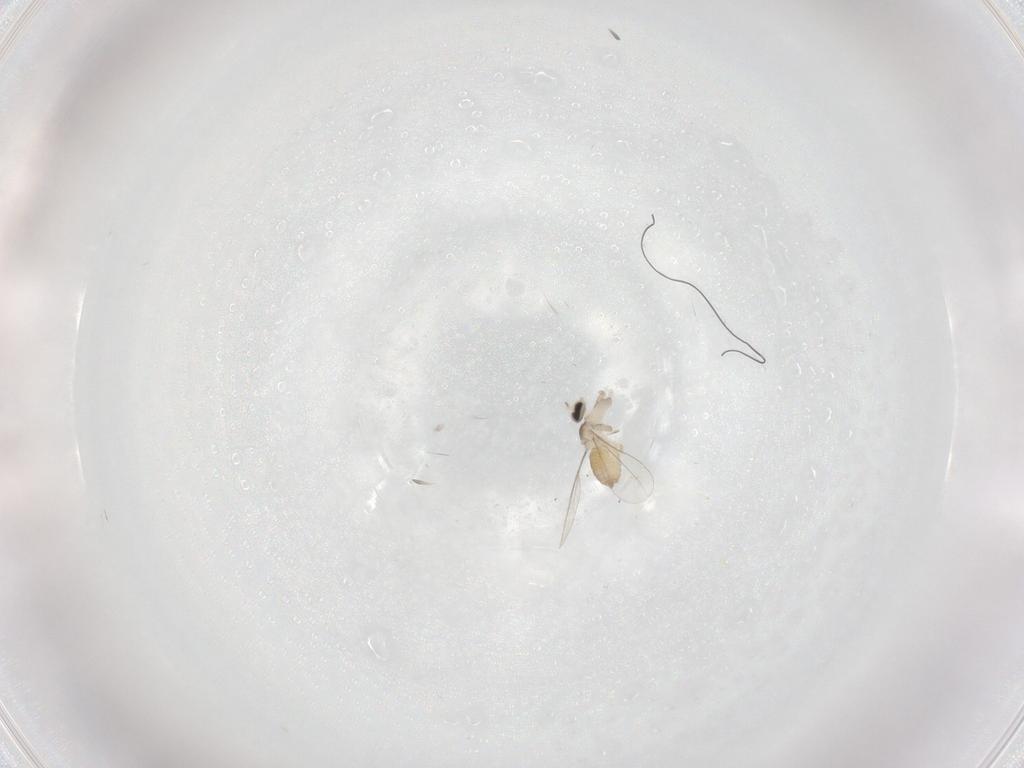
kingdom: Animalia
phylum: Arthropoda
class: Insecta
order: Diptera
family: Cecidomyiidae
